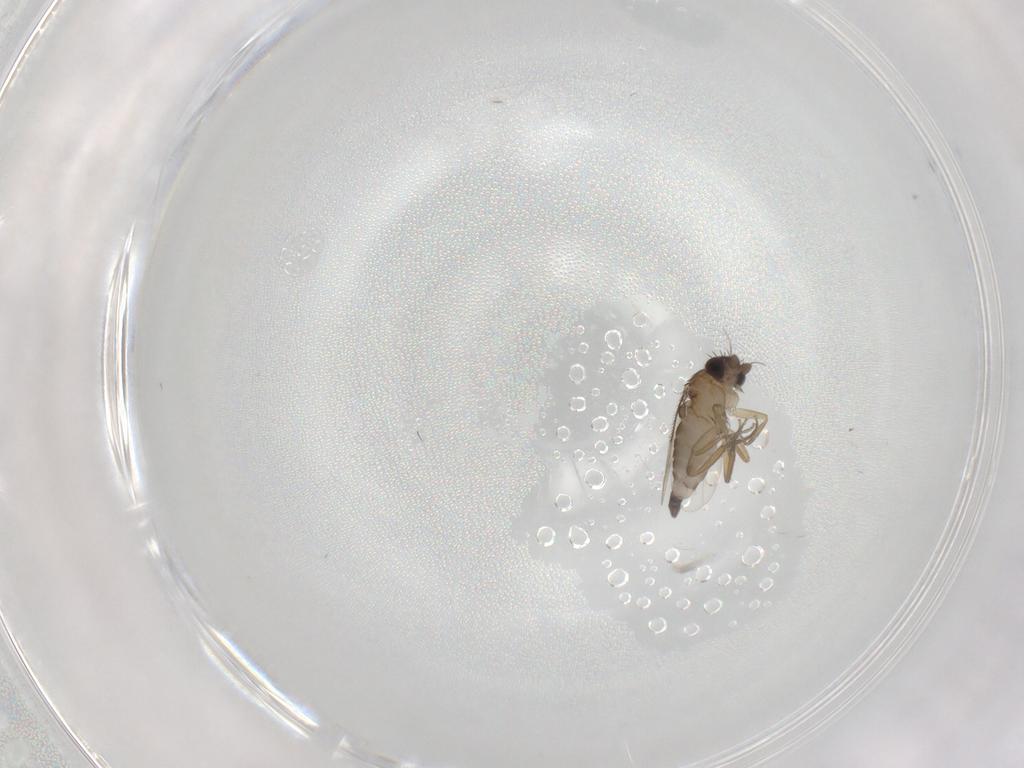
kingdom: Animalia
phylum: Arthropoda
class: Insecta
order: Diptera
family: Phoridae
